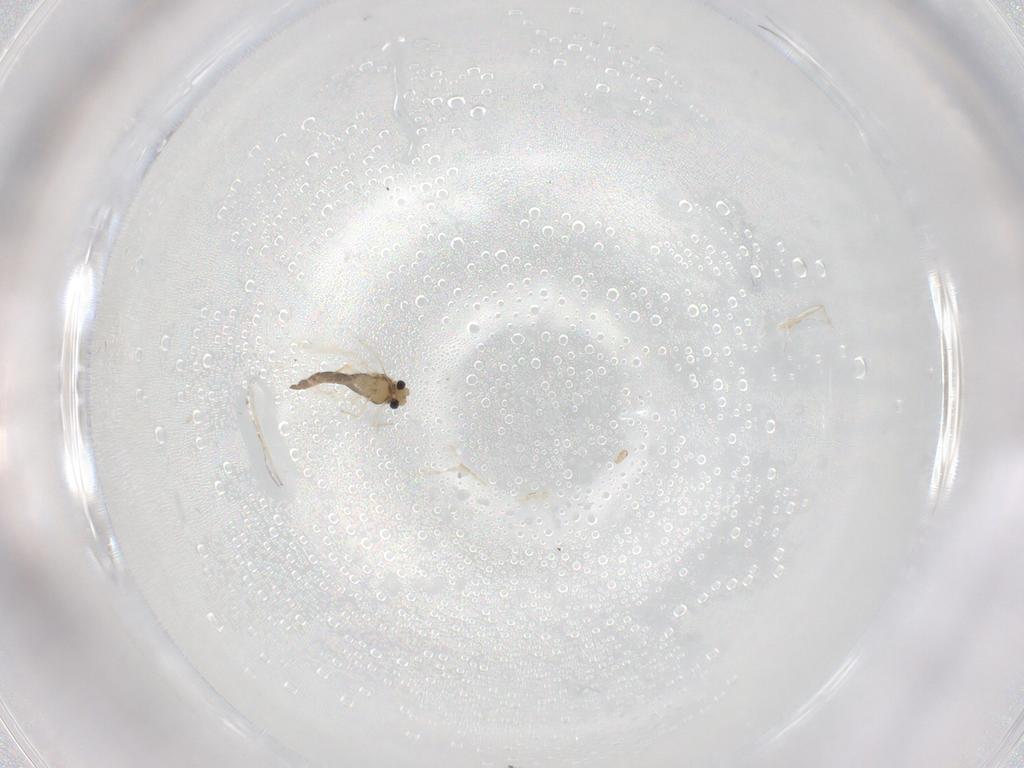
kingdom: Animalia
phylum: Arthropoda
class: Insecta
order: Diptera
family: Chironomidae
